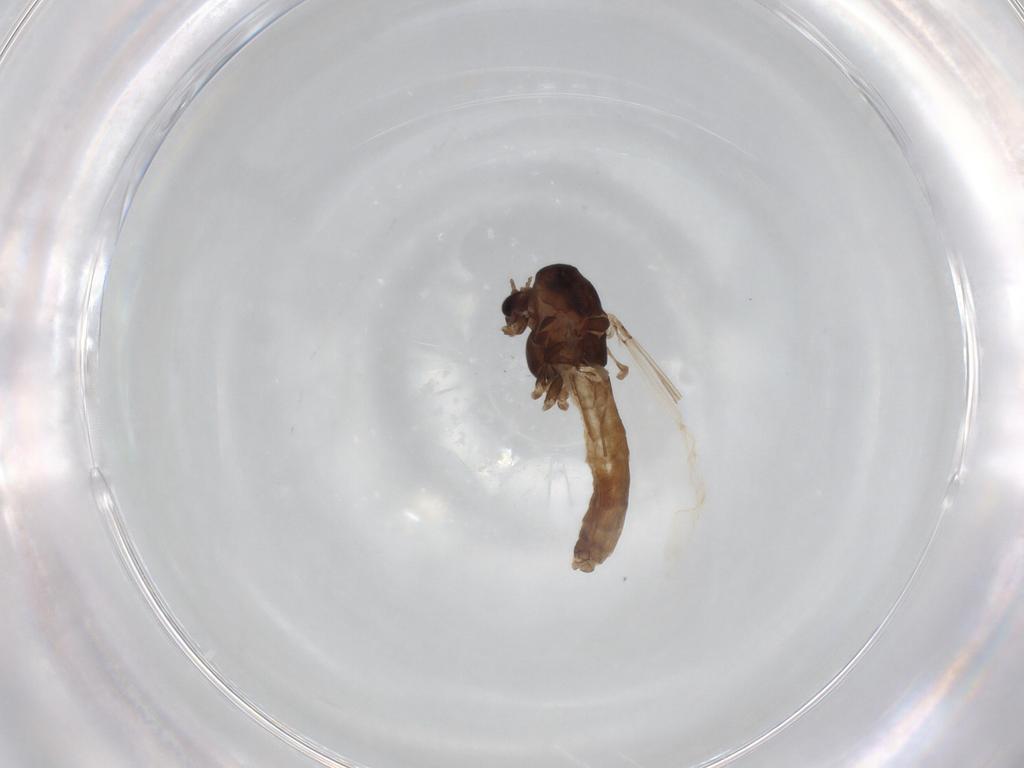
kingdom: Animalia
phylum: Arthropoda
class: Insecta
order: Diptera
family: Chironomidae
